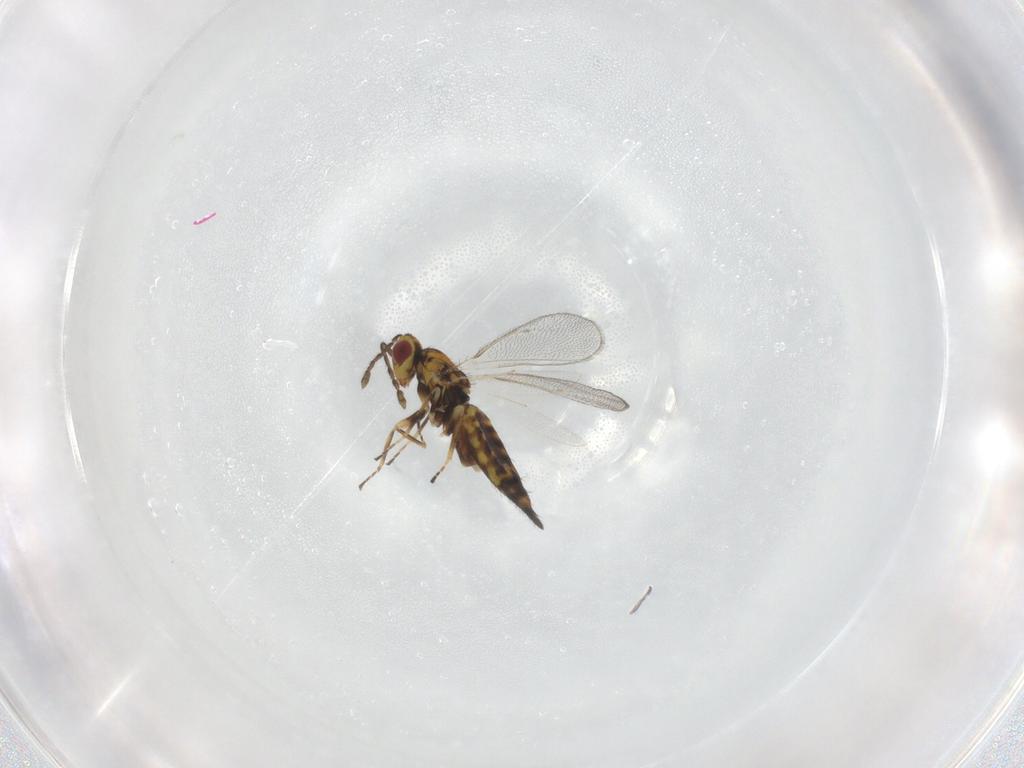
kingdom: Animalia
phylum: Arthropoda
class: Insecta
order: Hymenoptera
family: Eulophidae
